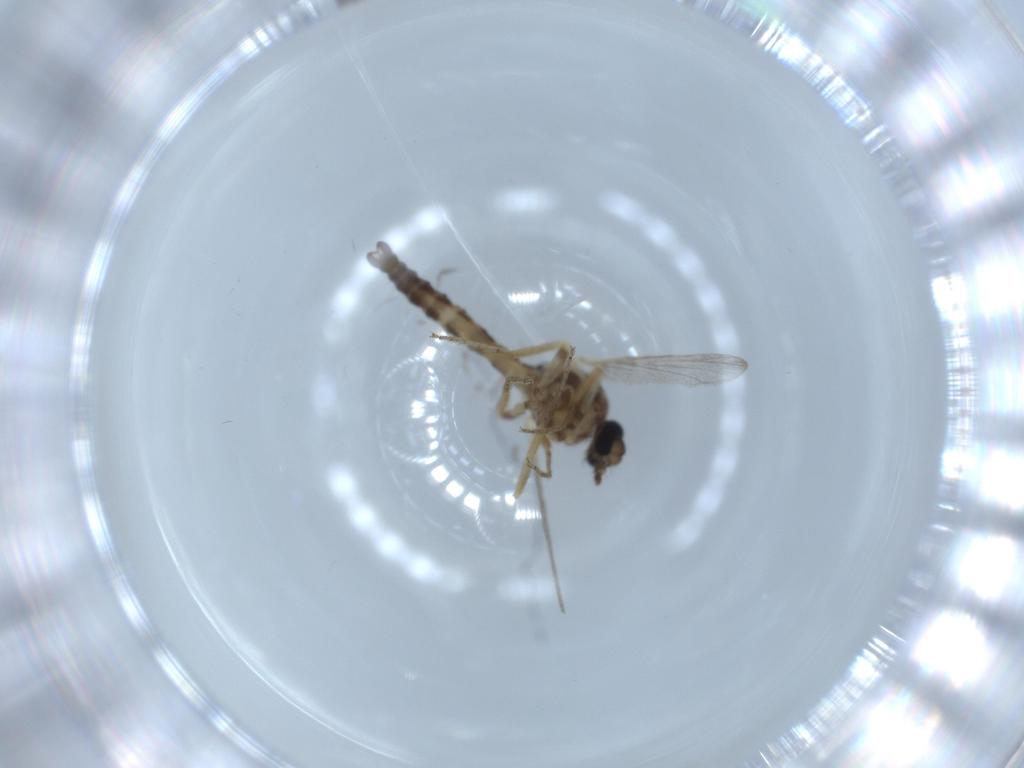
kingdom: Animalia
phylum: Arthropoda
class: Insecta
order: Diptera
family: Ceratopogonidae
